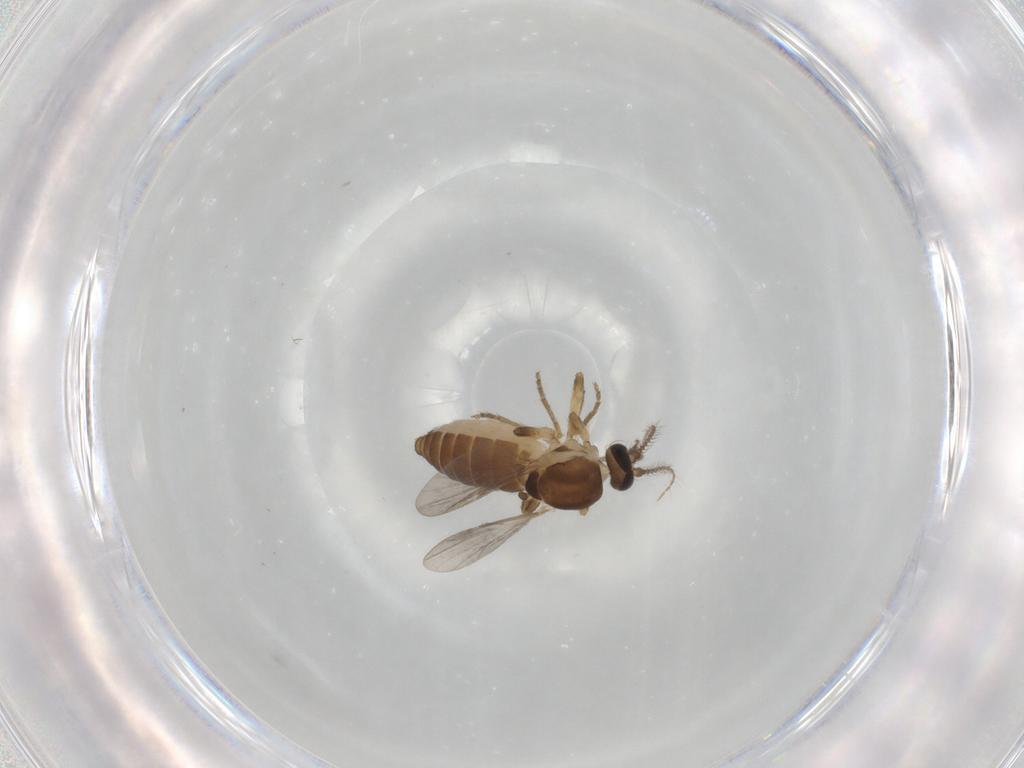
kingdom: Animalia
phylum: Arthropoda
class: Insecta
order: Diptera
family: Ceratopogonidae
